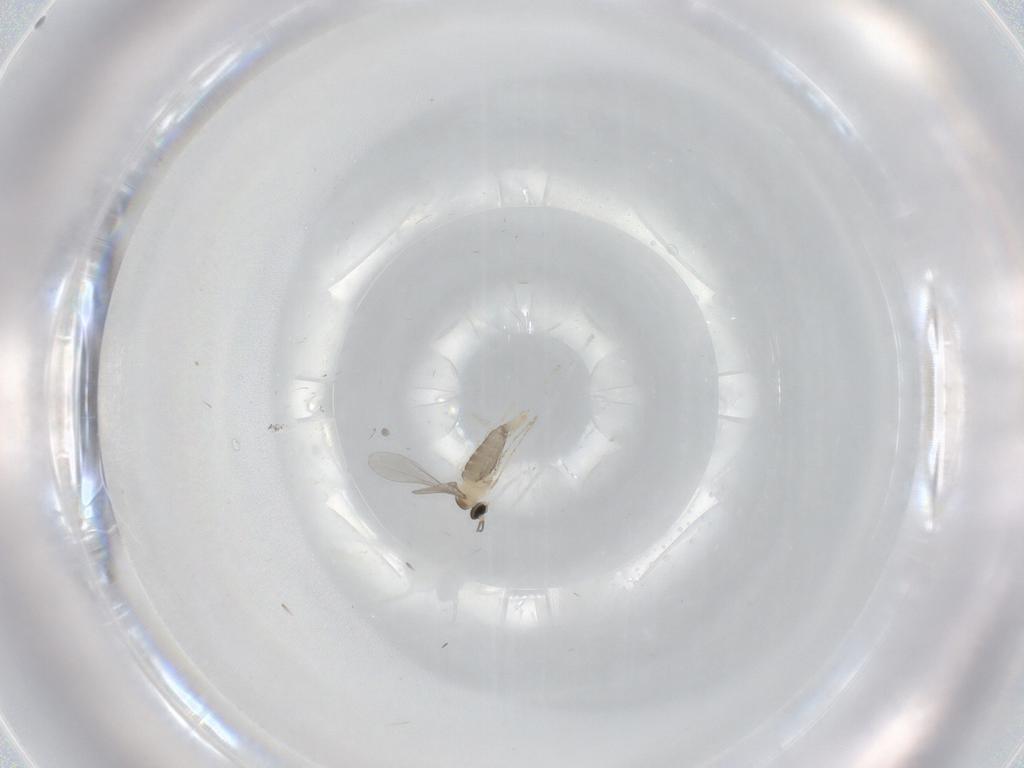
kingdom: Animalia
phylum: Arthropoda
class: Insecta
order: Diptera
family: Cecidomyiidae
